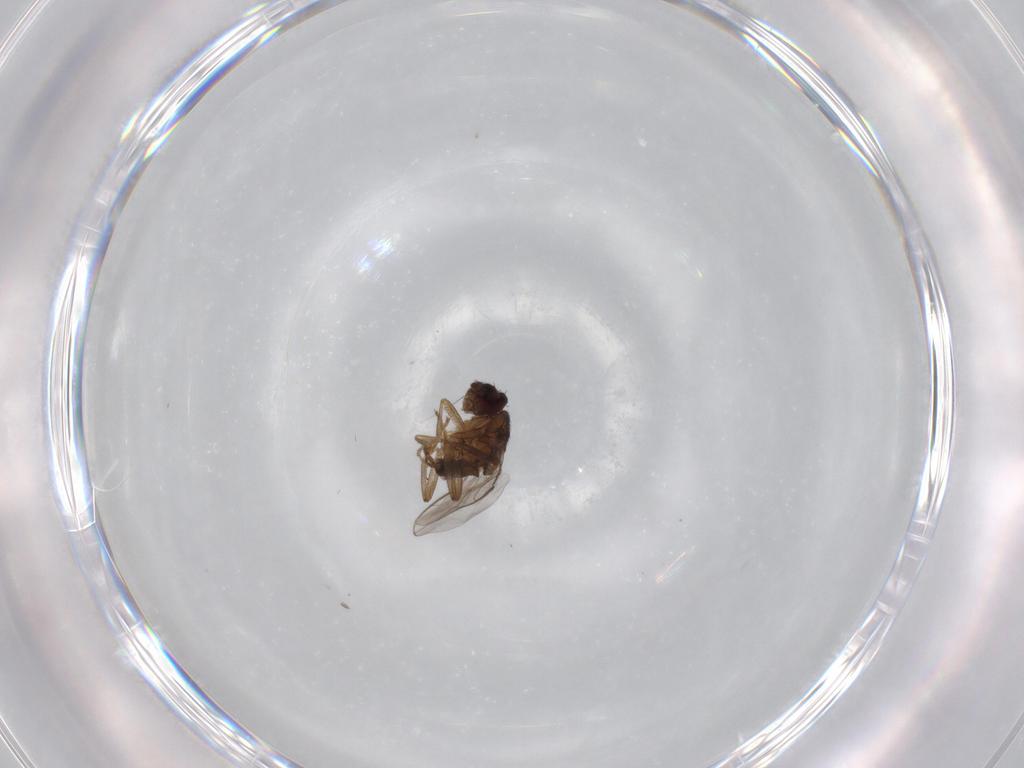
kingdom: Animalia
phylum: Arthropoda
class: Insecta
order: Diptera
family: Sphaeroceridae
